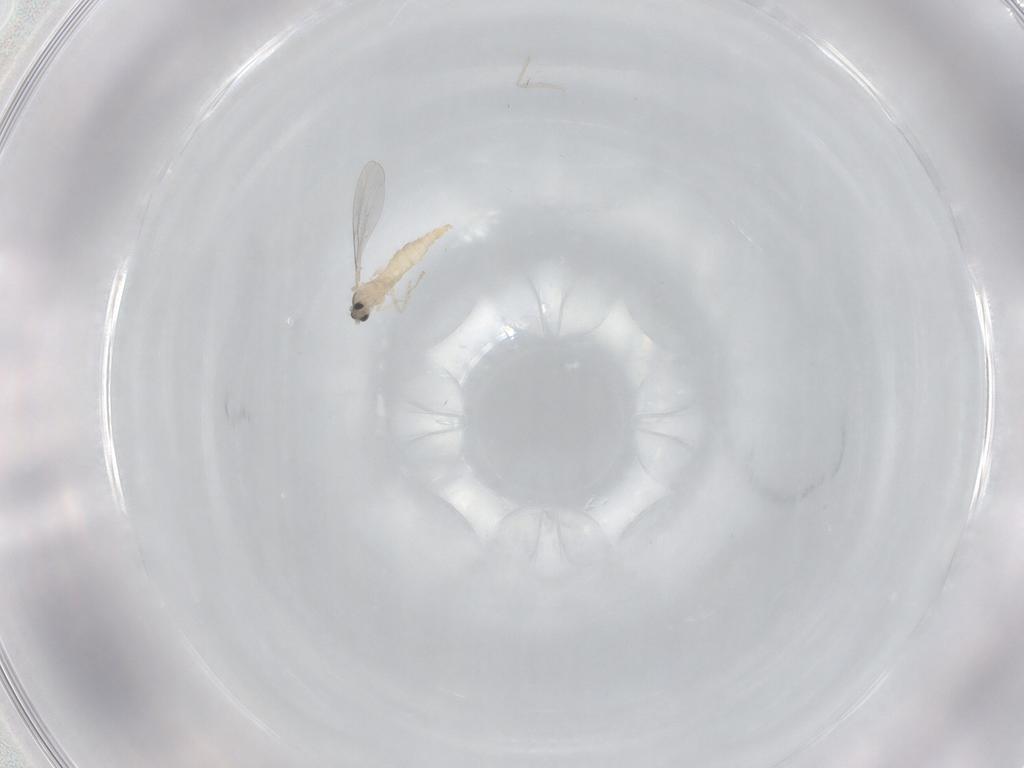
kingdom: Animalia
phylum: Arthropoda
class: Insecta
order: Diptera
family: Cecidomyiidae
